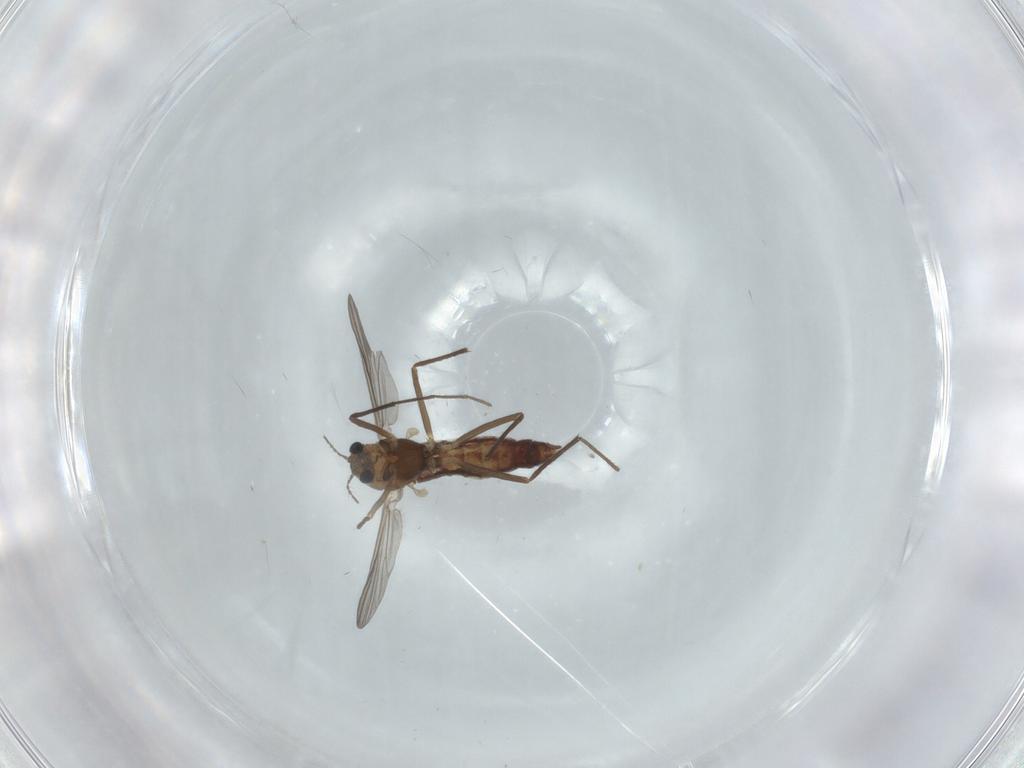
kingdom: Animalia
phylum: Arthropoda
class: Insecta
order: Diptera
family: Chironomidae
